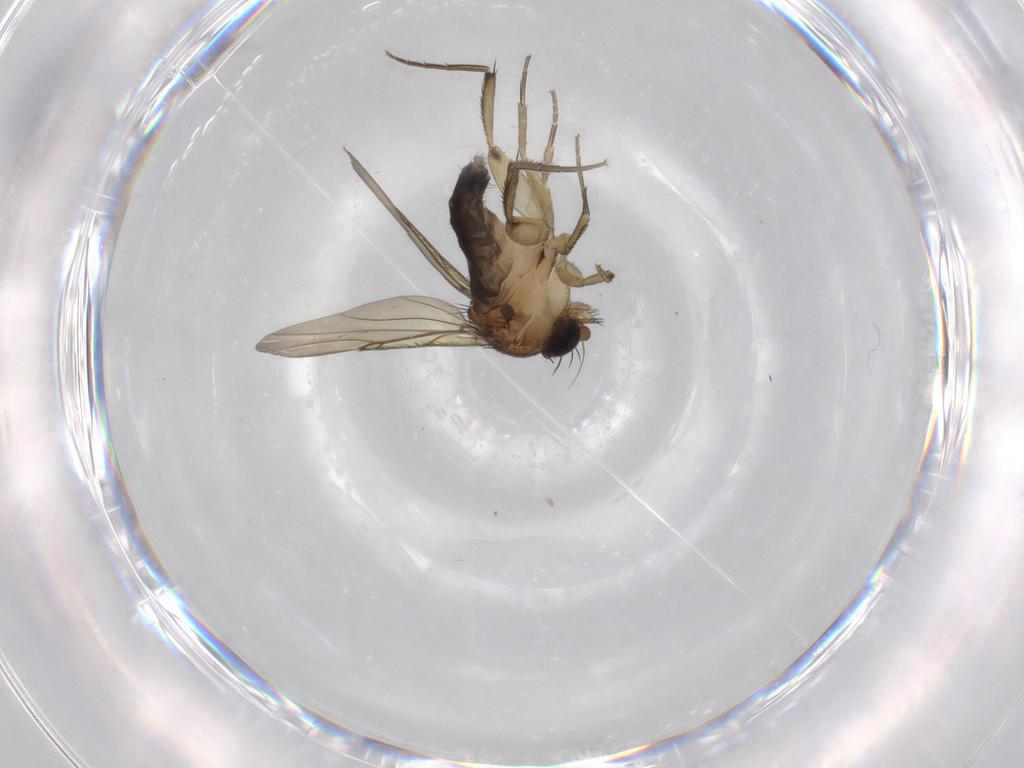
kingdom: Animalia
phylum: Arthropoda
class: Insecta
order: Diptera
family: Phoridae
